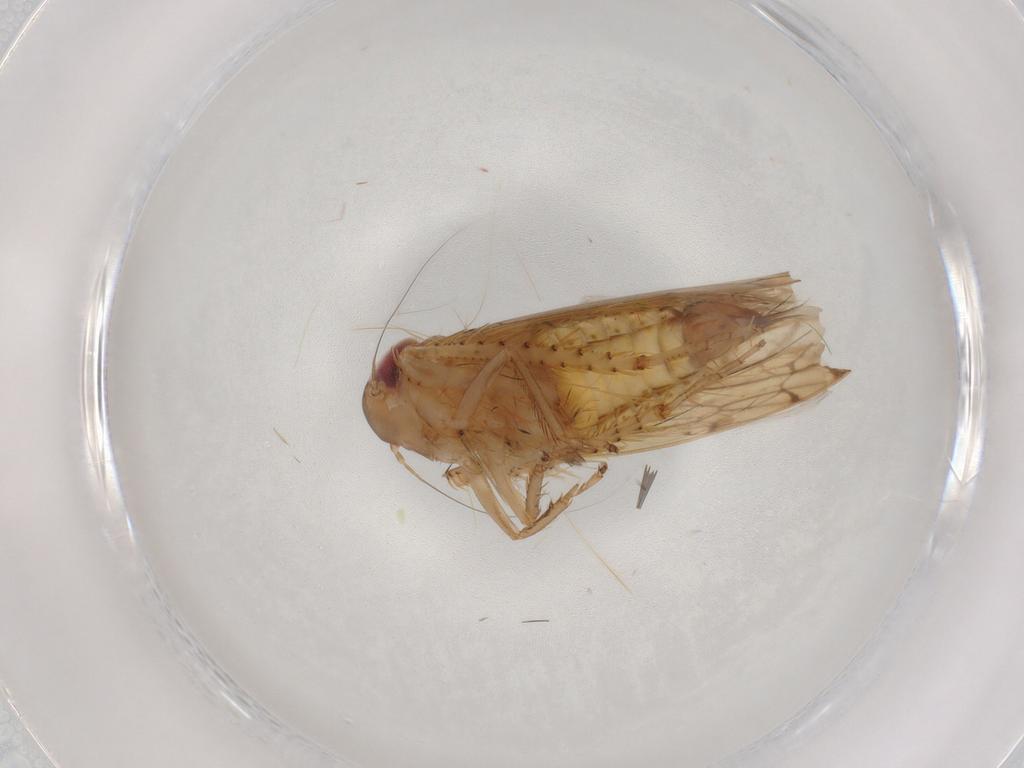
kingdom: Animalia
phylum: Arthropoda
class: Insecta
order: Hemiptera
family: Cicadellidae
